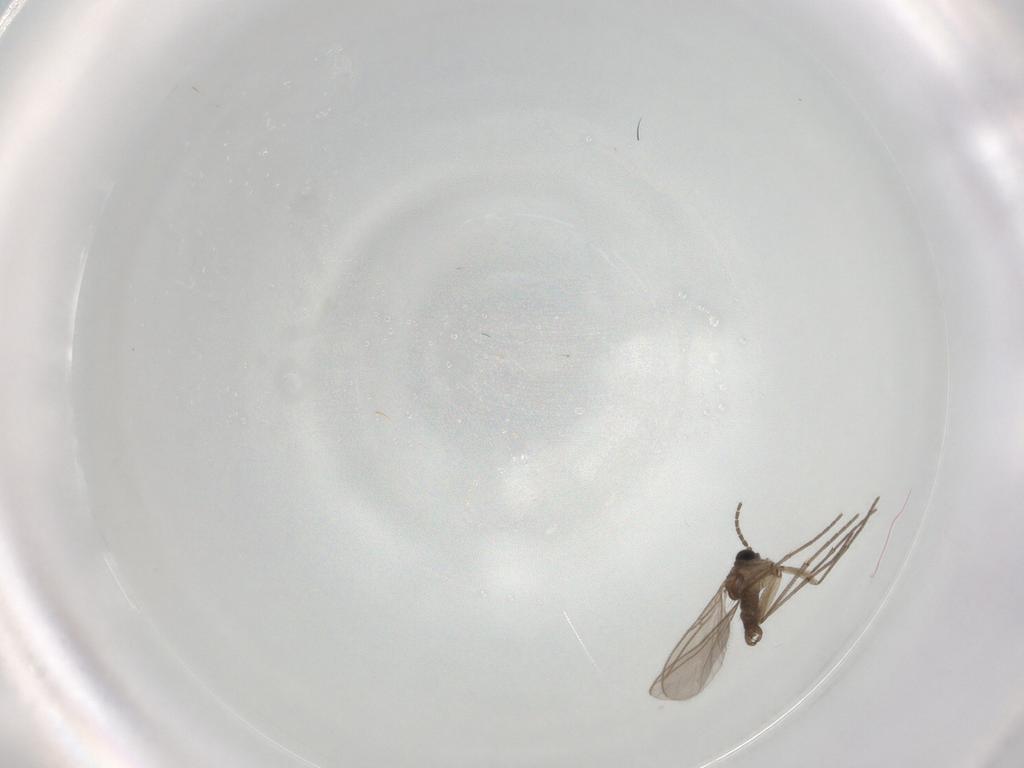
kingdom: Animalia
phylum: Arthropoda
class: Insecta
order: Diptera
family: Sciaridae
